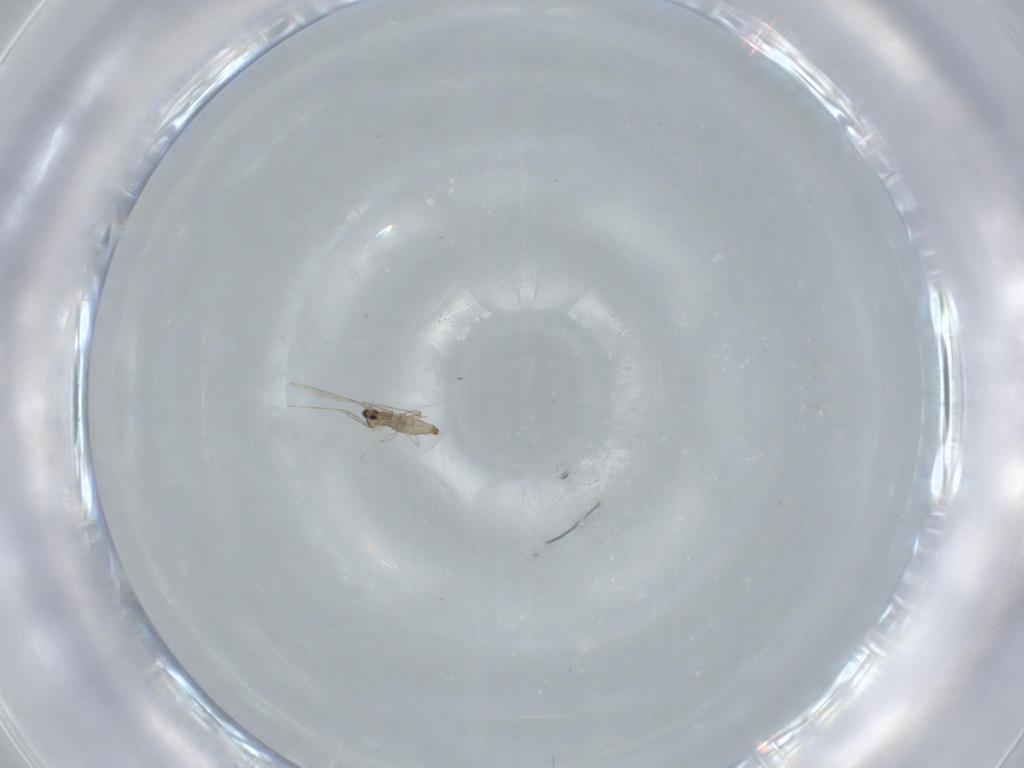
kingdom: Animalia
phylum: Arthropoda
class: Insecta
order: Diptera
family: Cecidomyiidae
